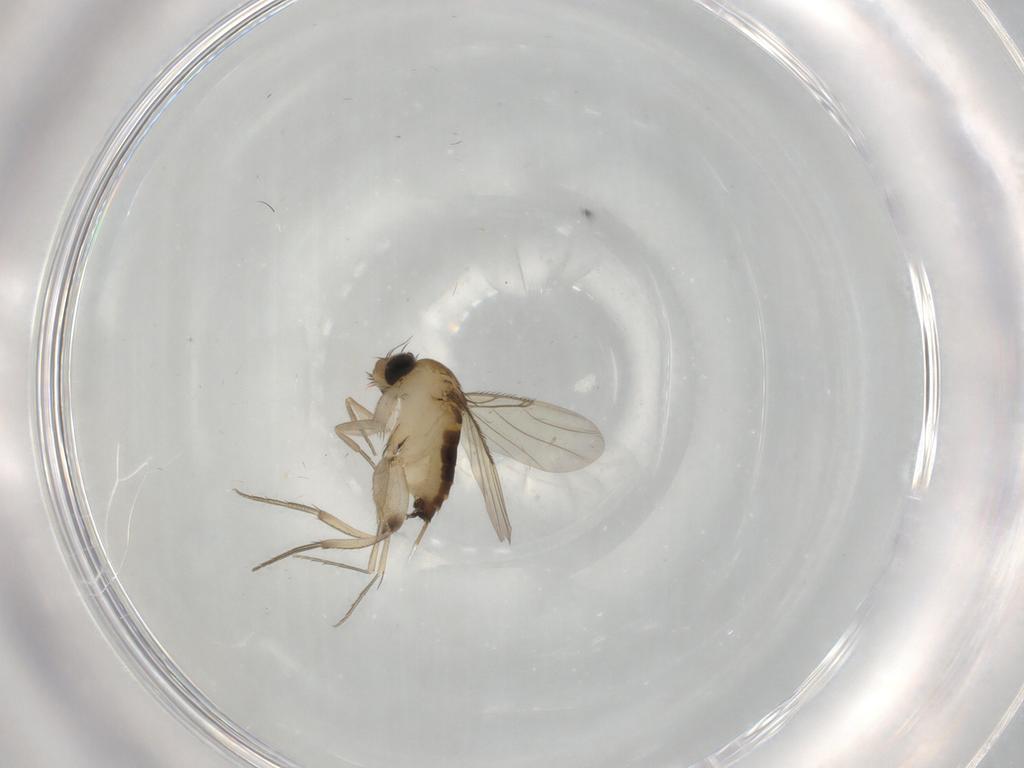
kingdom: Animalia
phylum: Arthropoda
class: Insecta
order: Diptera
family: Phoridae
